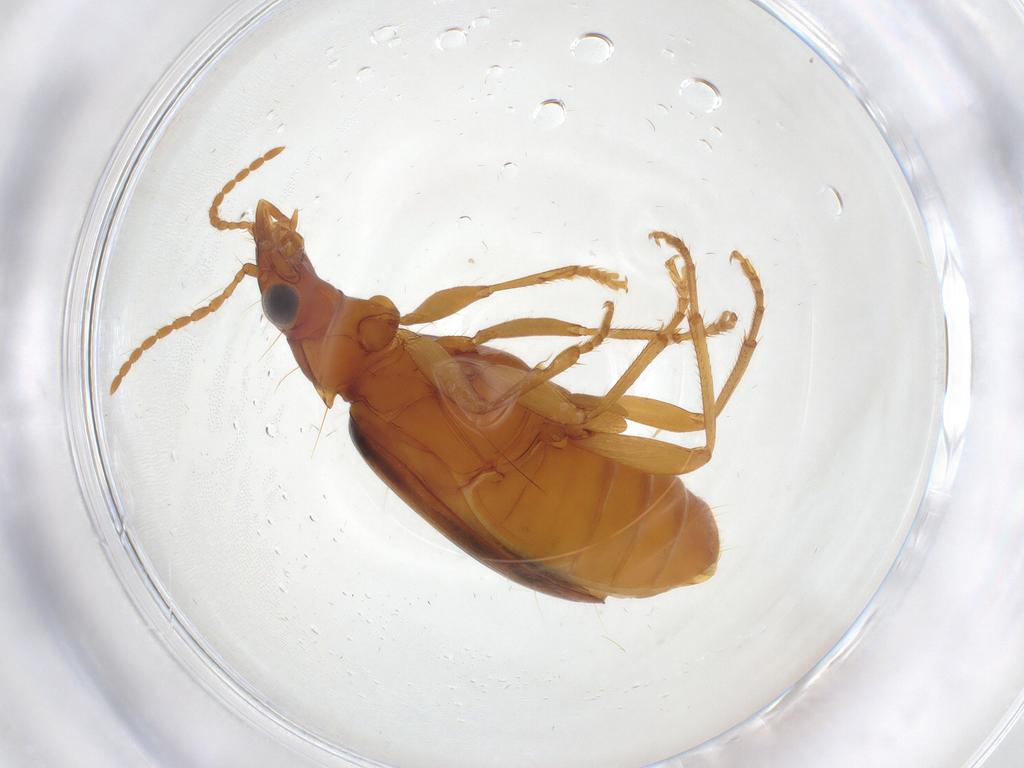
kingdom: Animalia
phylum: Arthropoda
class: Insecta
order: Coleoptera
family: Carabidae
